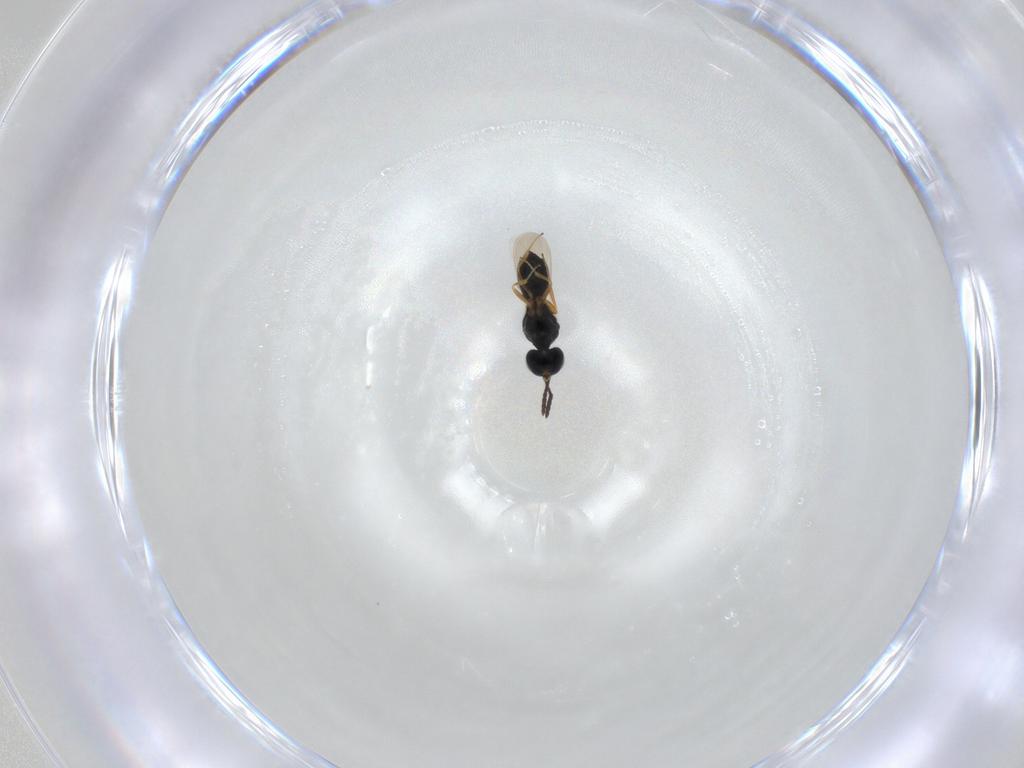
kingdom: Animalia
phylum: Arthropoda
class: Insecta
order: Hymenoptera
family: Scelionidae
